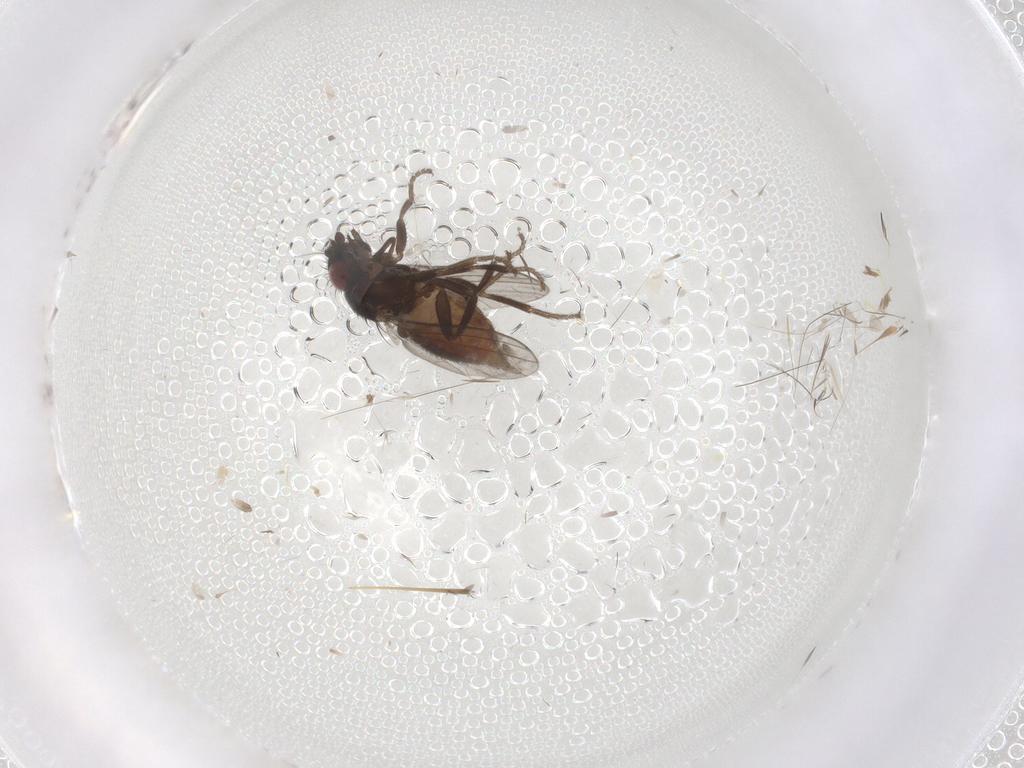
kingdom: Animalia
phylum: Arthropoda
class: Insecta
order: Diptera
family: Milichiidae
